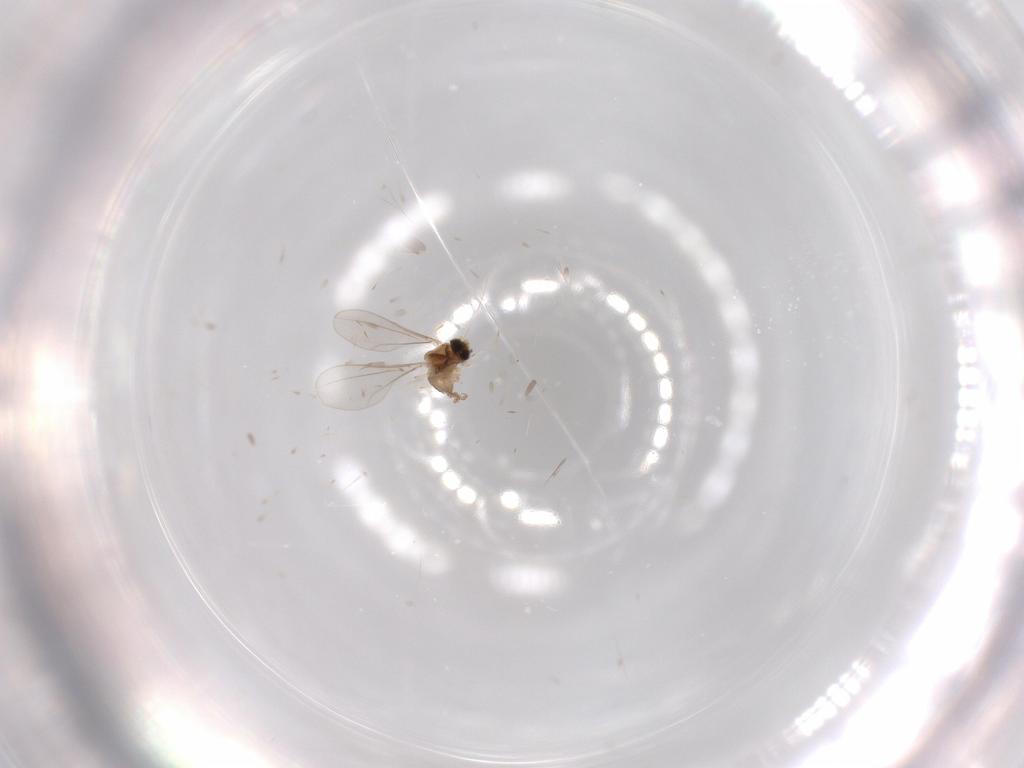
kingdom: Animalia
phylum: Arthropoda
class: Insecta
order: Diptera
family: Cecidomyiidae
